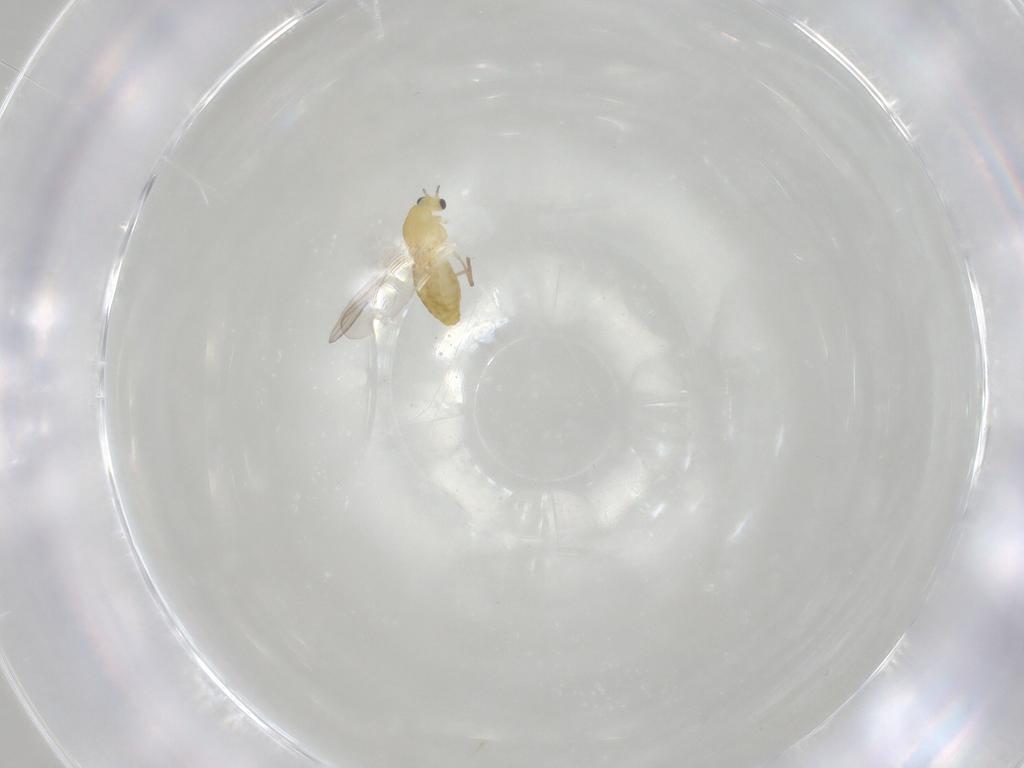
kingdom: Animalia
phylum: Arthropoda
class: Insecta
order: Diptera
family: Chironomidae
